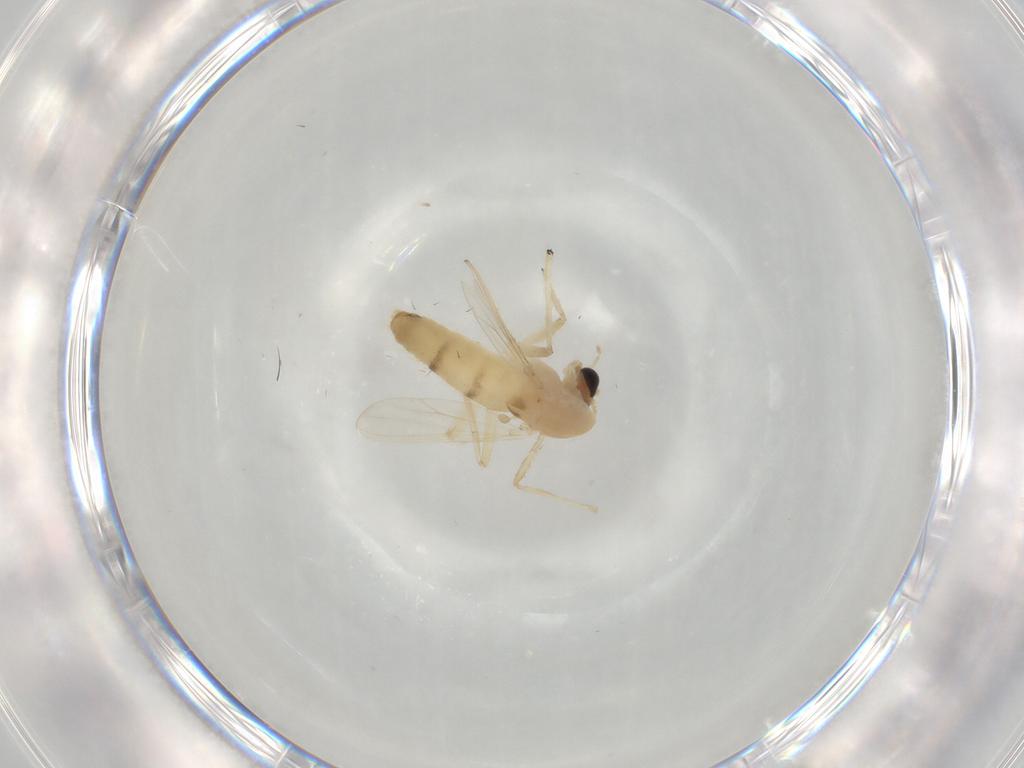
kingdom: Animalia
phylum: Arthropoda
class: Insecta
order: Diptera
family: Chironomidae
